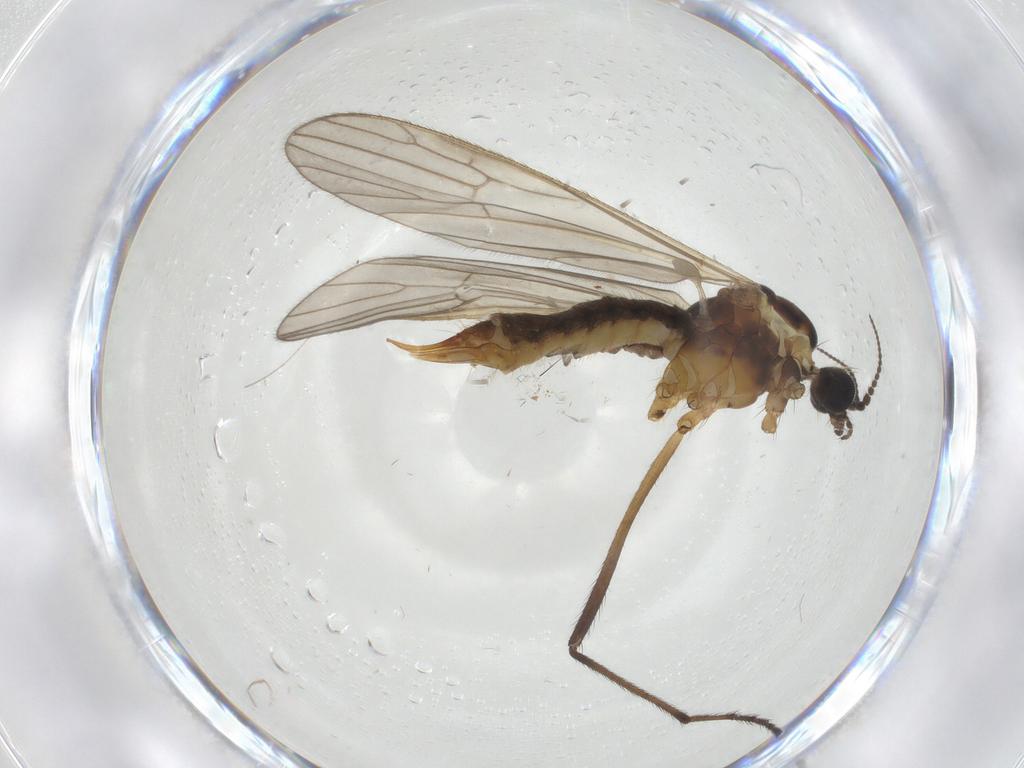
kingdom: Animalia
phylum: Arthropoda
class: Insecta
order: Diptera
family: Agromyzidae
